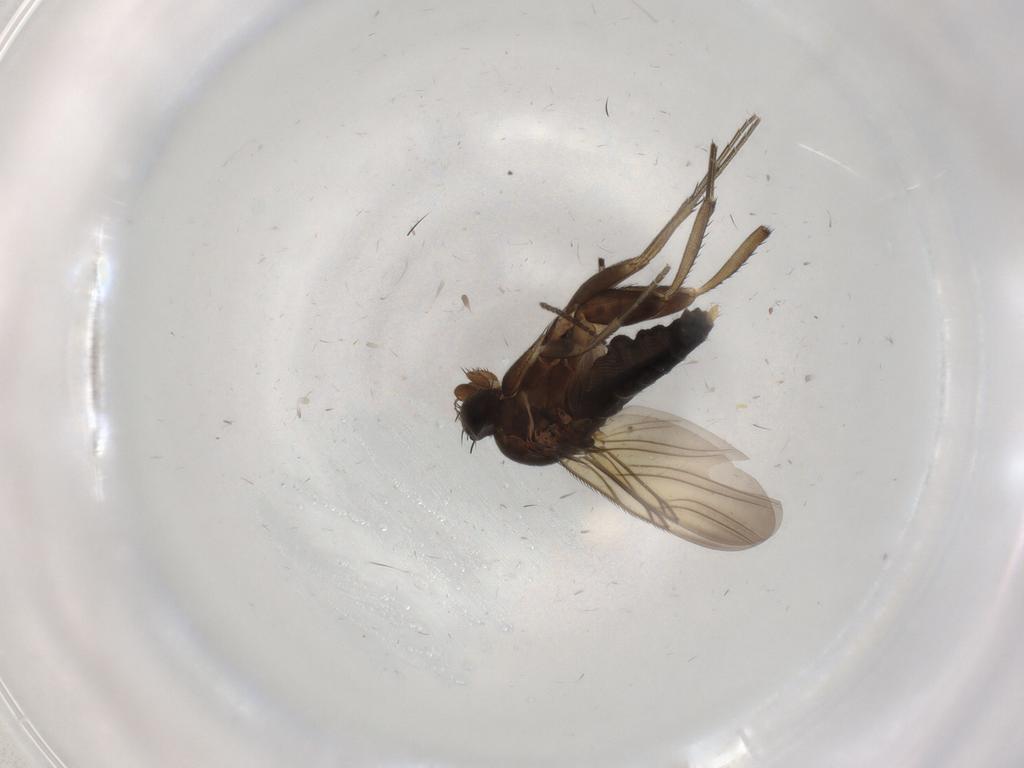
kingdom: Animalia
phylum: Arthropoda
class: Insecta
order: Diptera
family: Phoridae
